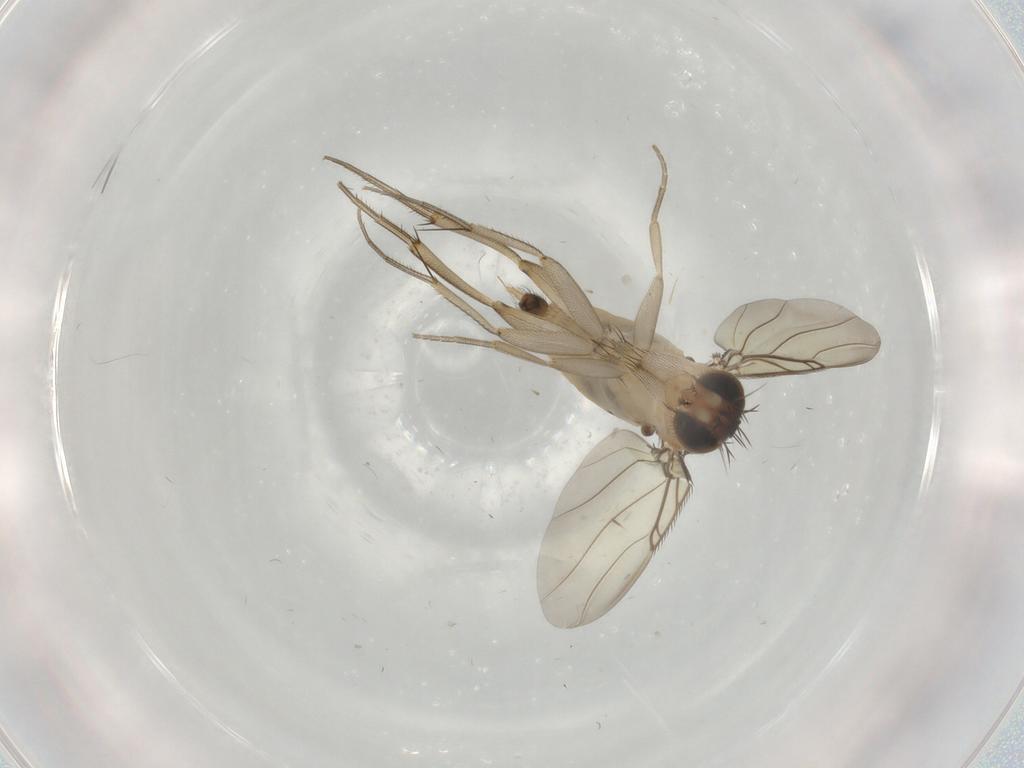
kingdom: Animalia
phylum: Arthropoda
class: Insecta
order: Diptera
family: Phoridae
